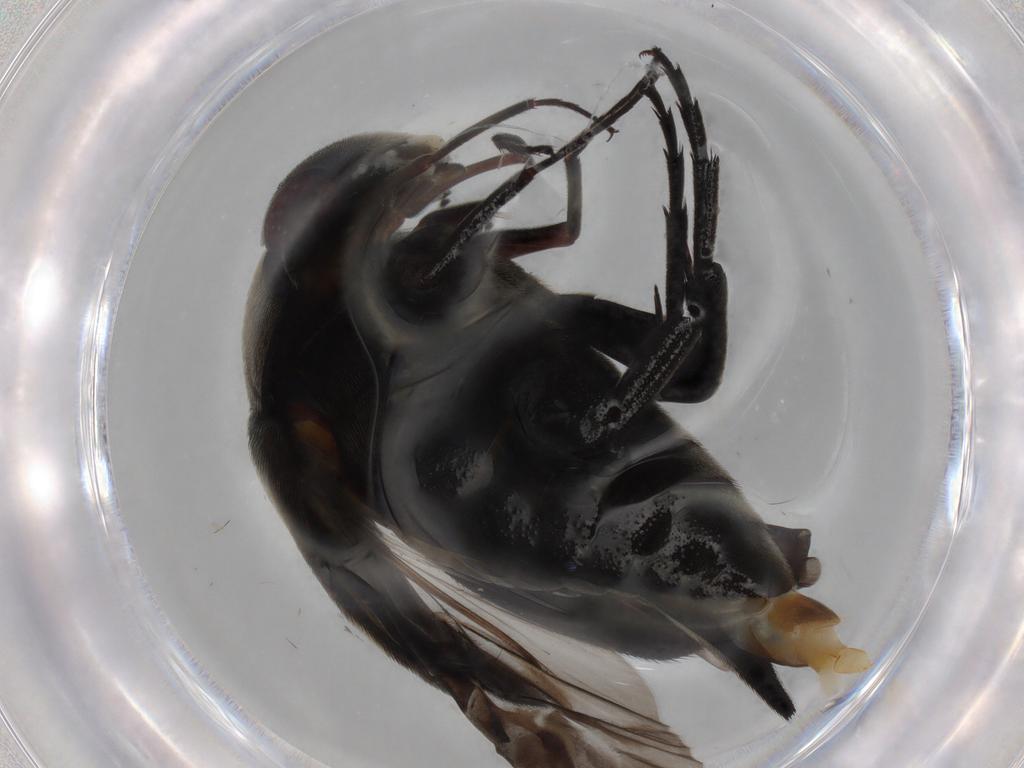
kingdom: Animalia
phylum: Arthropoda
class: Insecta
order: Coleoptera
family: Mordellidae
